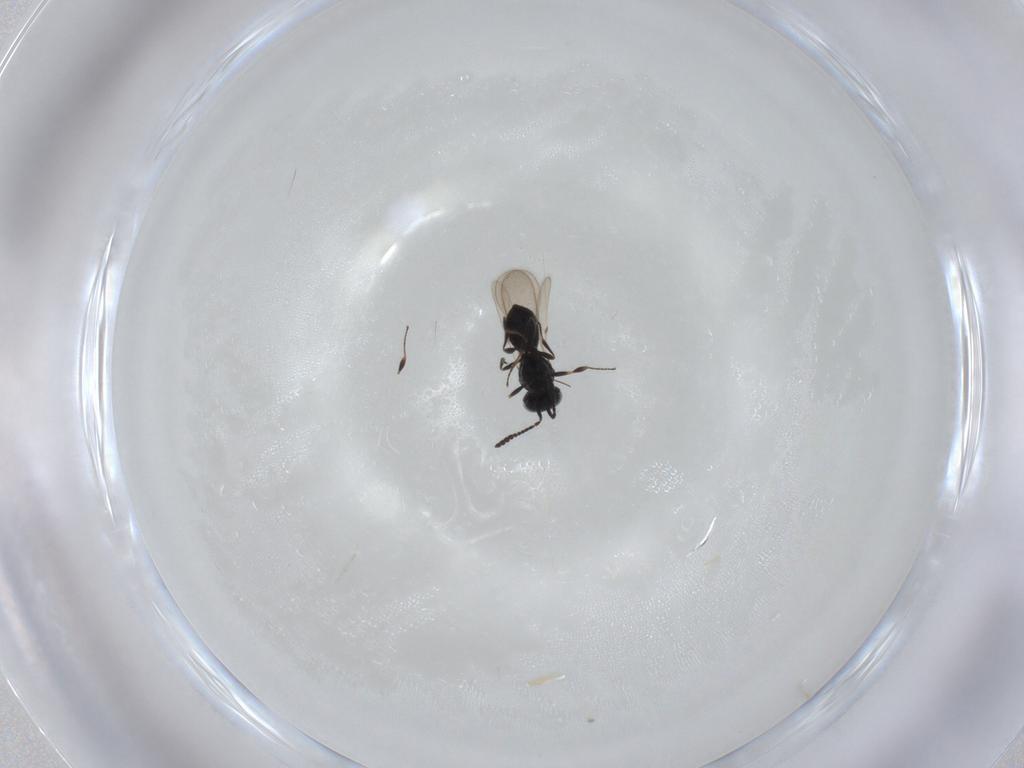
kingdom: Animalia
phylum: Arthropoda
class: Insecta
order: Hymenoptera
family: Scelionidae
